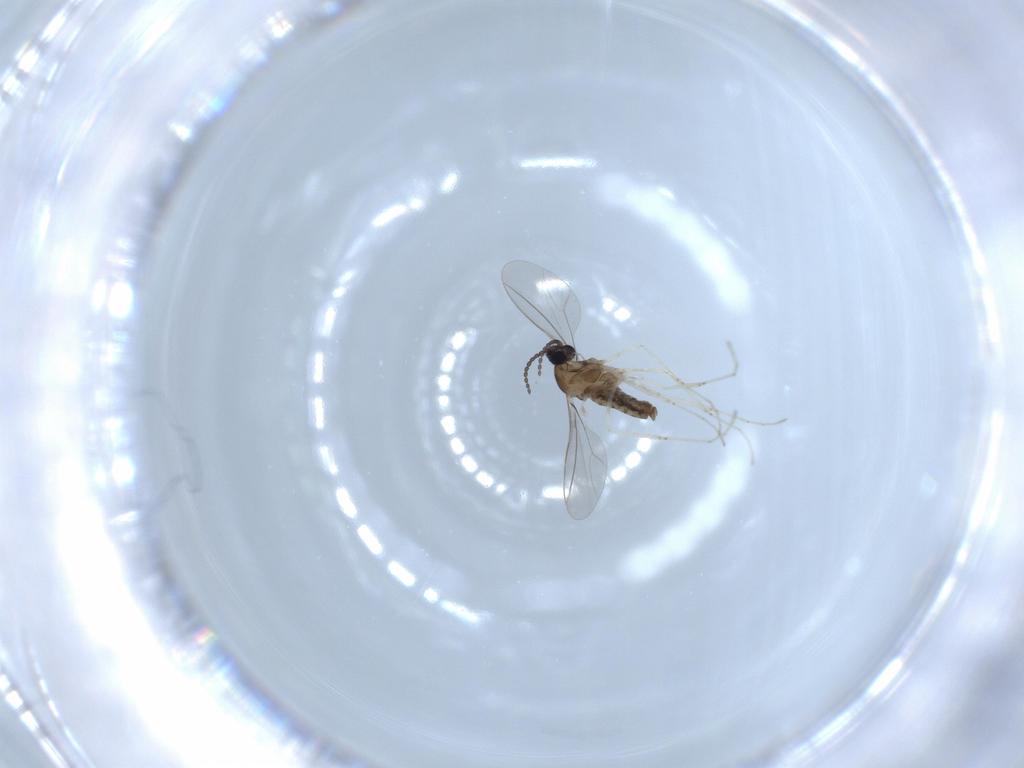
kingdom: Animalia
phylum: Arthropoda
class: Insecta
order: Diptera
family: Cecidomyiidae
